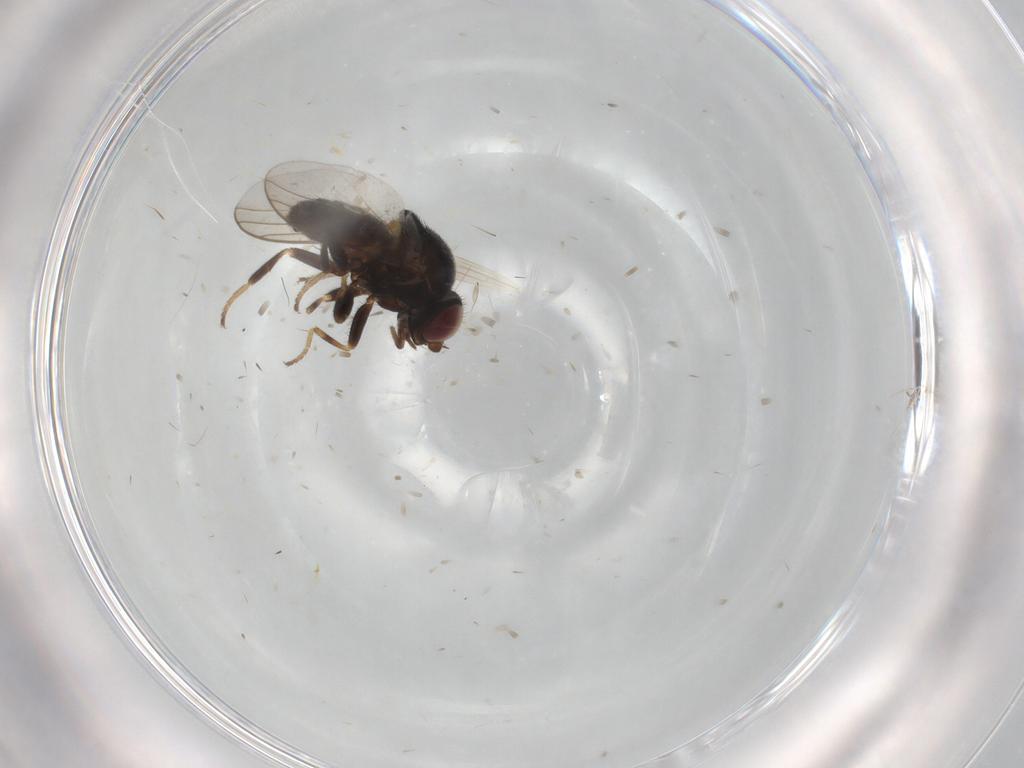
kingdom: Animalia
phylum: Arthropoda
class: Insecta
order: Diptera
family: Chloropidae
